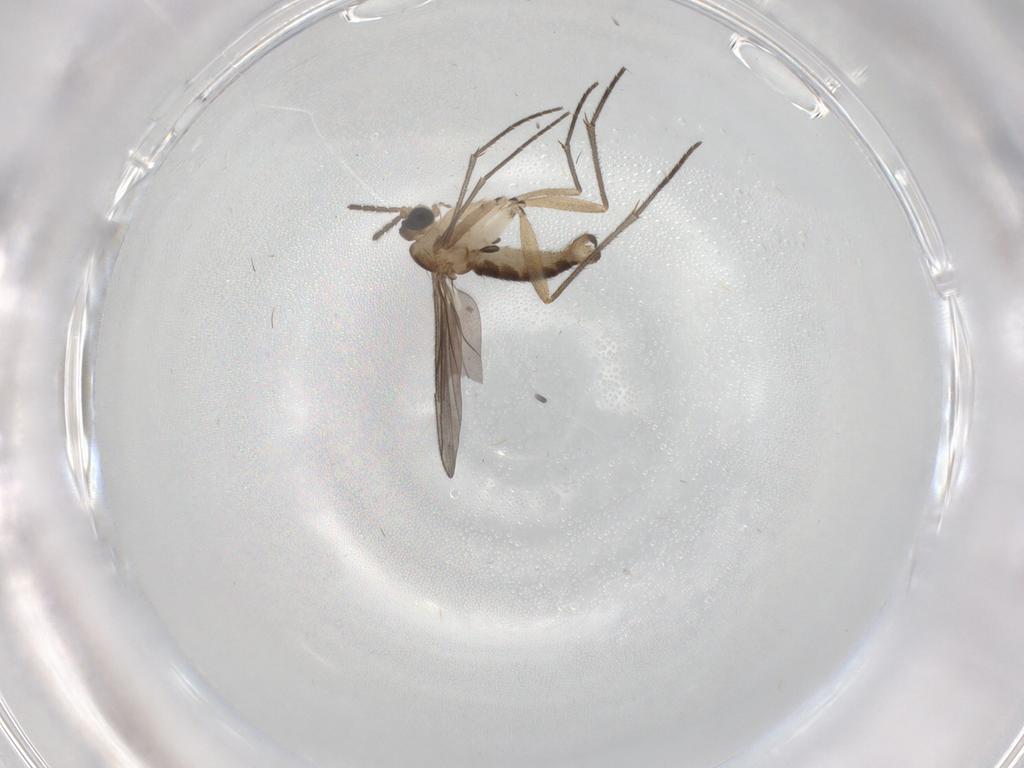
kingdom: Animalia
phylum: Arthropoda
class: Insecta
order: Diptera
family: Sciaridae
